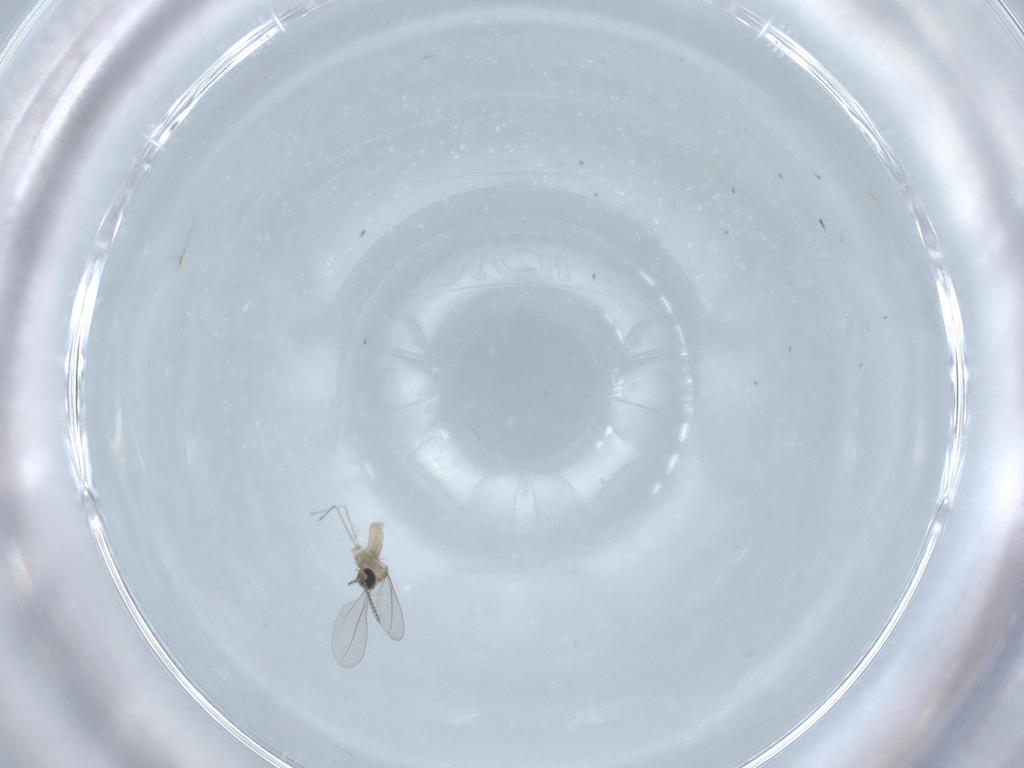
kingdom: Animalia
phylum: Arthropoda
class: Insecta
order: Diptera
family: Cecidomyiidae
